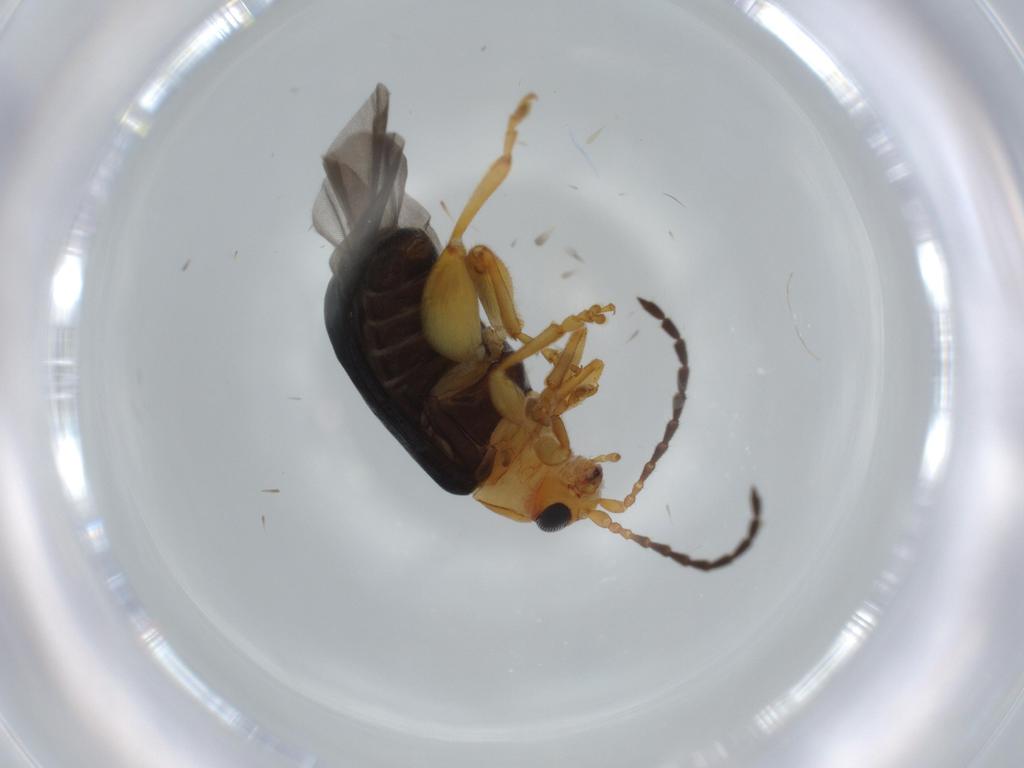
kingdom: Animalia
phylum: Arthropoda
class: Insecta
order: Coleoptera
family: Chrysomelidae
